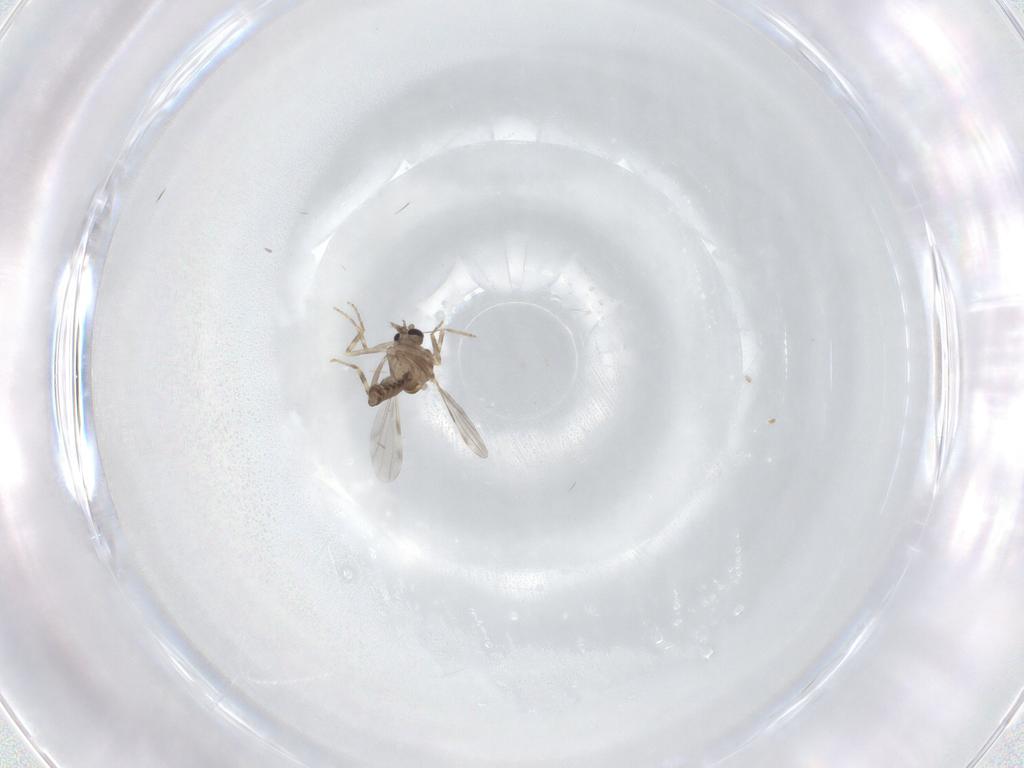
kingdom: Animalia
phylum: Arthropoda
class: Insecta
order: Diptera
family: Ceratopogonidae
